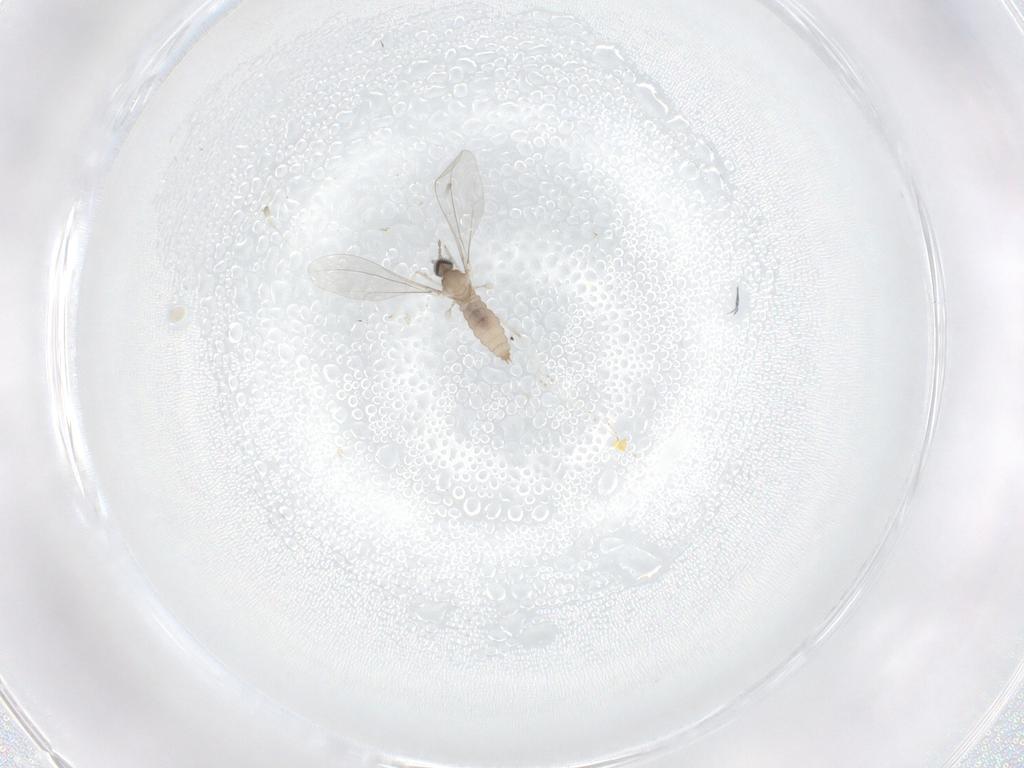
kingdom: Animalia
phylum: Arthropoda
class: Insecta
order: Diptera
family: Cecidomyiidae
